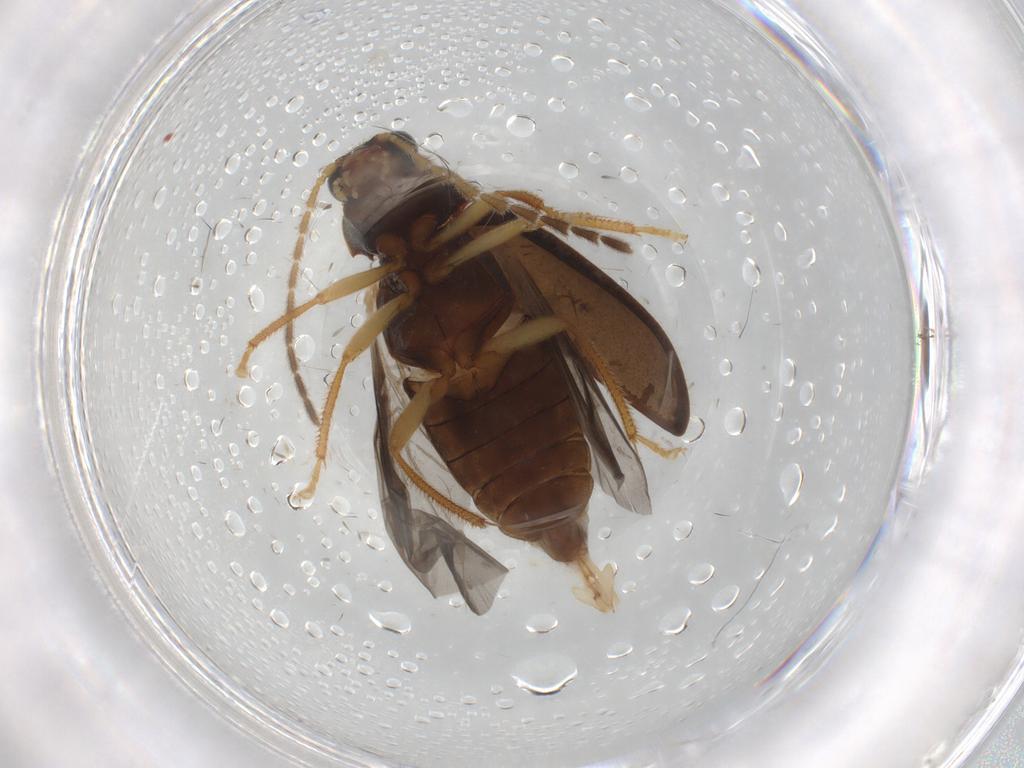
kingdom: Animalia
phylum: Arthropoda
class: Insecta
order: Coleoptera
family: Ptilodactylidae
